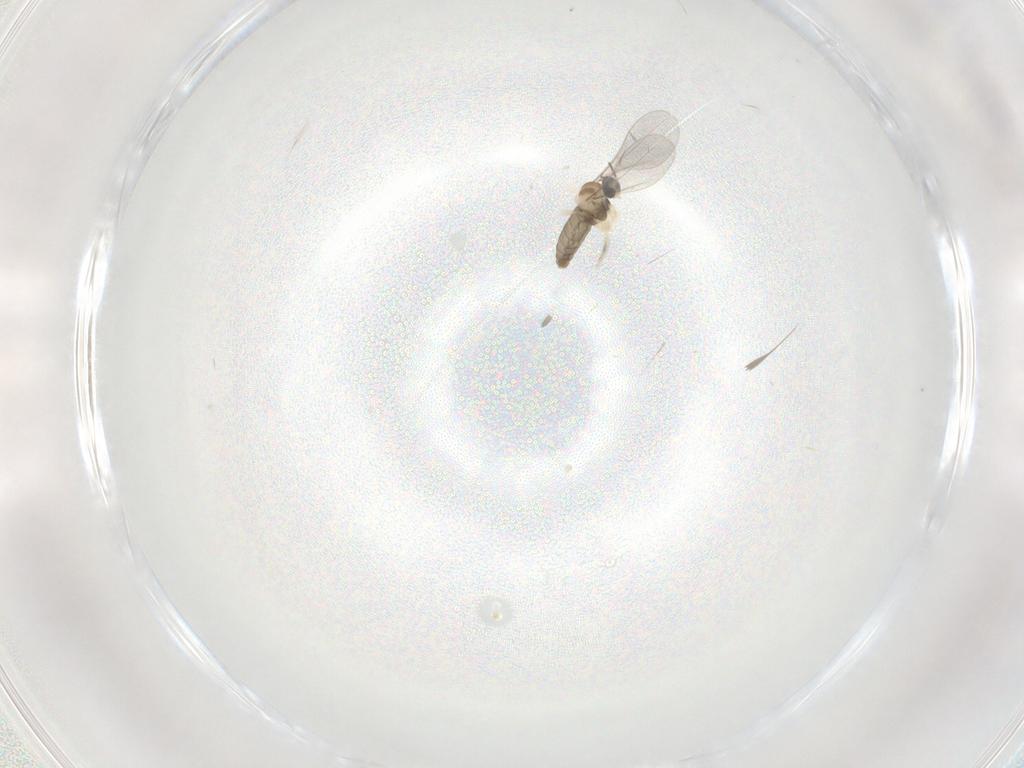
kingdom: Animalia
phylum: Arthropoda
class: Insecta
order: Diptera
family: Cecidomyiidae
